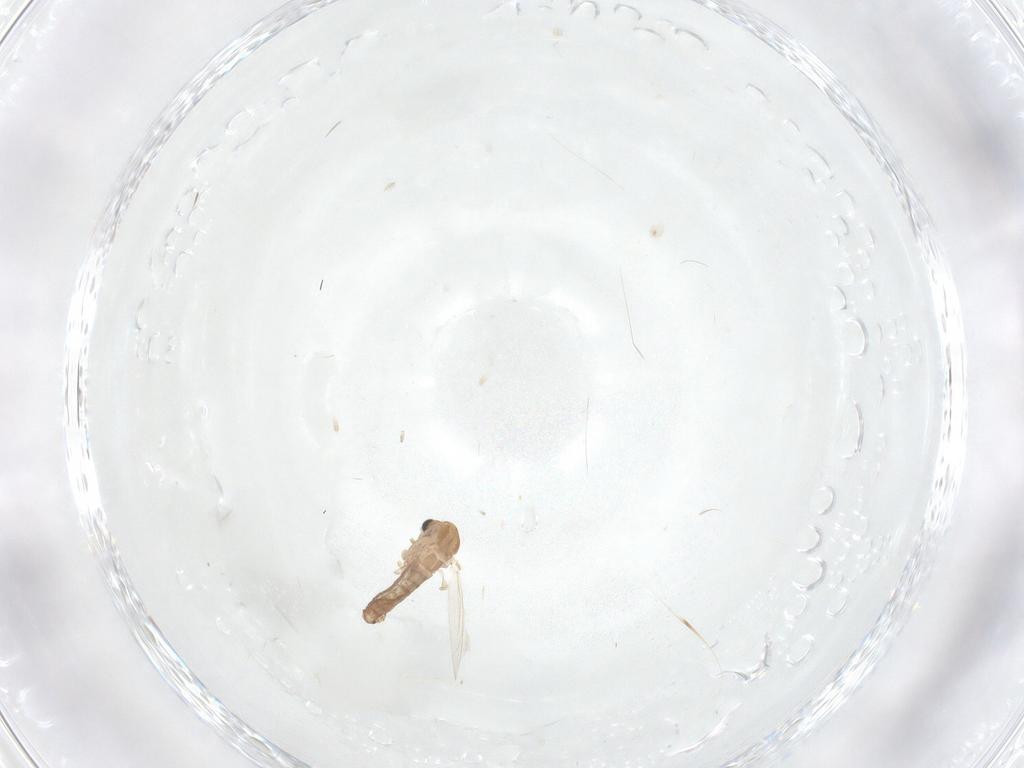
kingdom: Animalia
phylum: Arthropoda
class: Insecta
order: Diptera
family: Chironomidae
